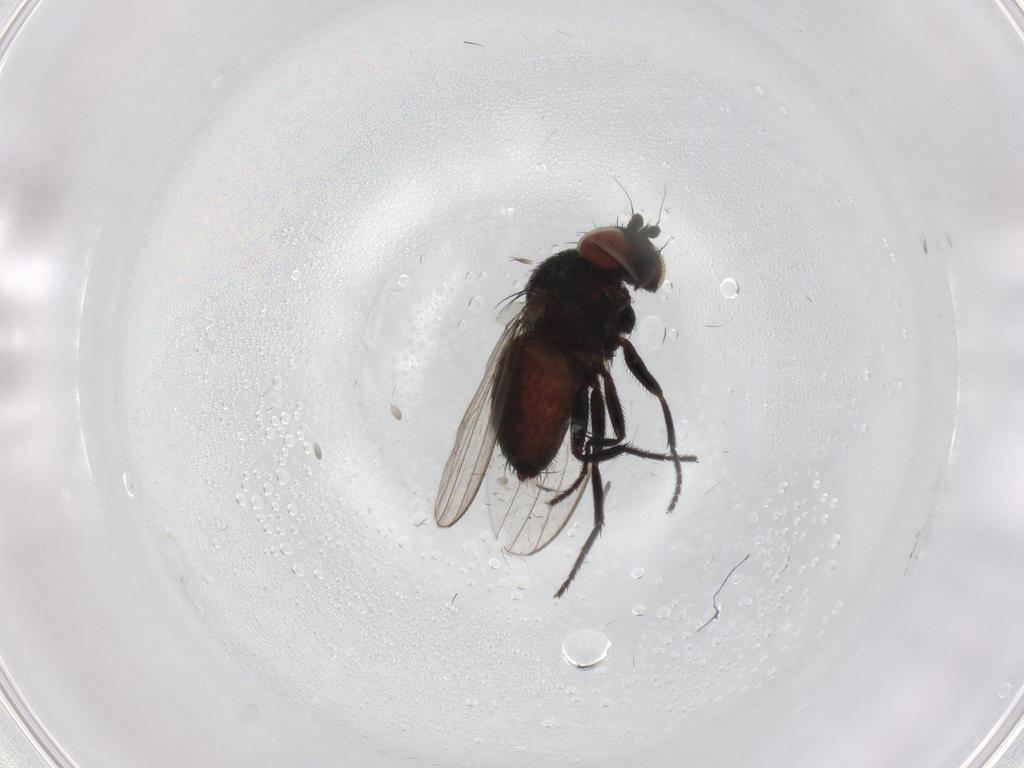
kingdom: Animalia
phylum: Arthropoda
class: Insecta
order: Diptera
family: Milichiidae
